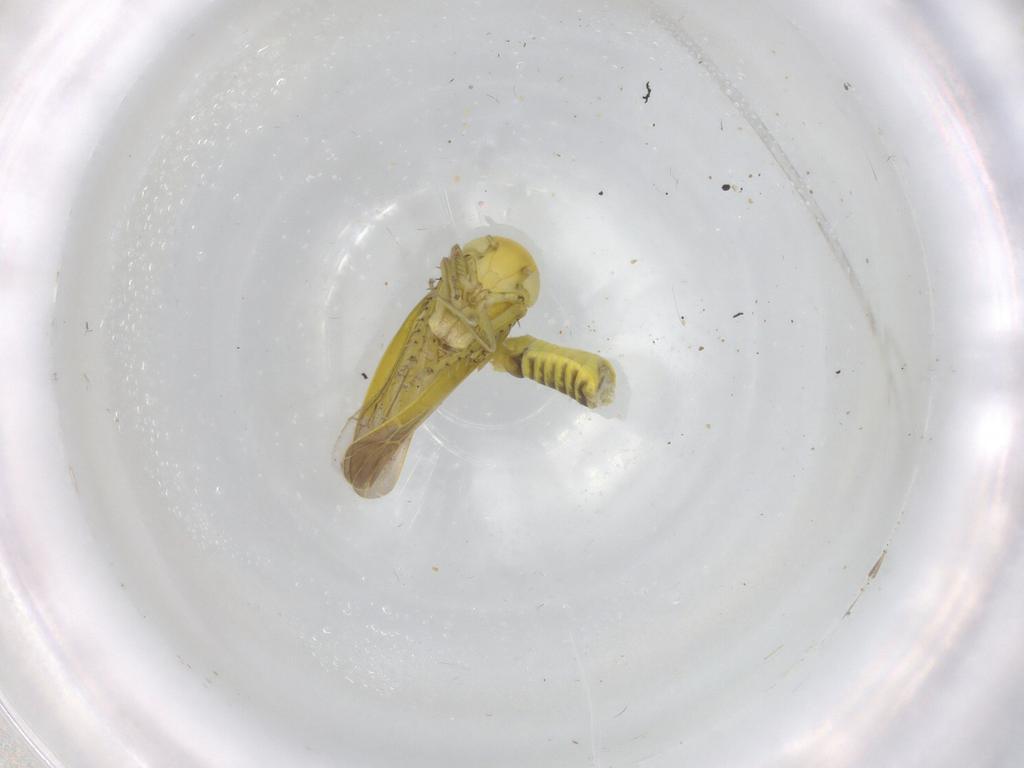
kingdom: Animalia
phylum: Arthropoda
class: Insecta
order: Hemiptera
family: Cicadellidae
